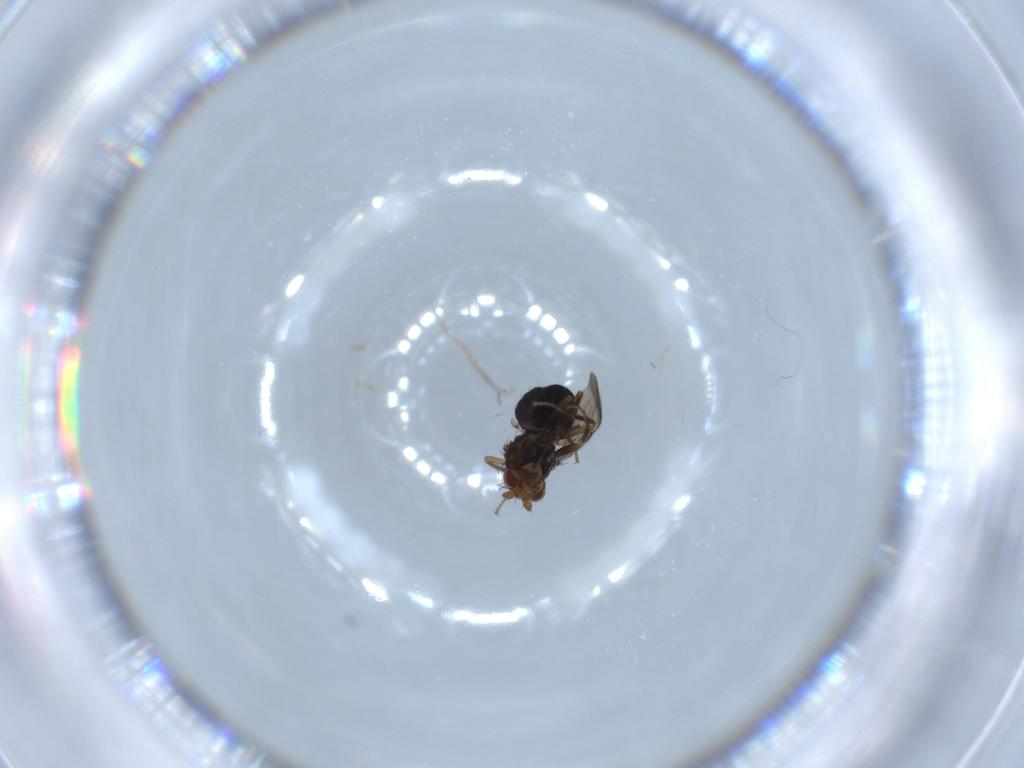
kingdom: Animalia
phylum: Arthropoda
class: Insecta
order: Diptera
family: Sphaeroceridae
